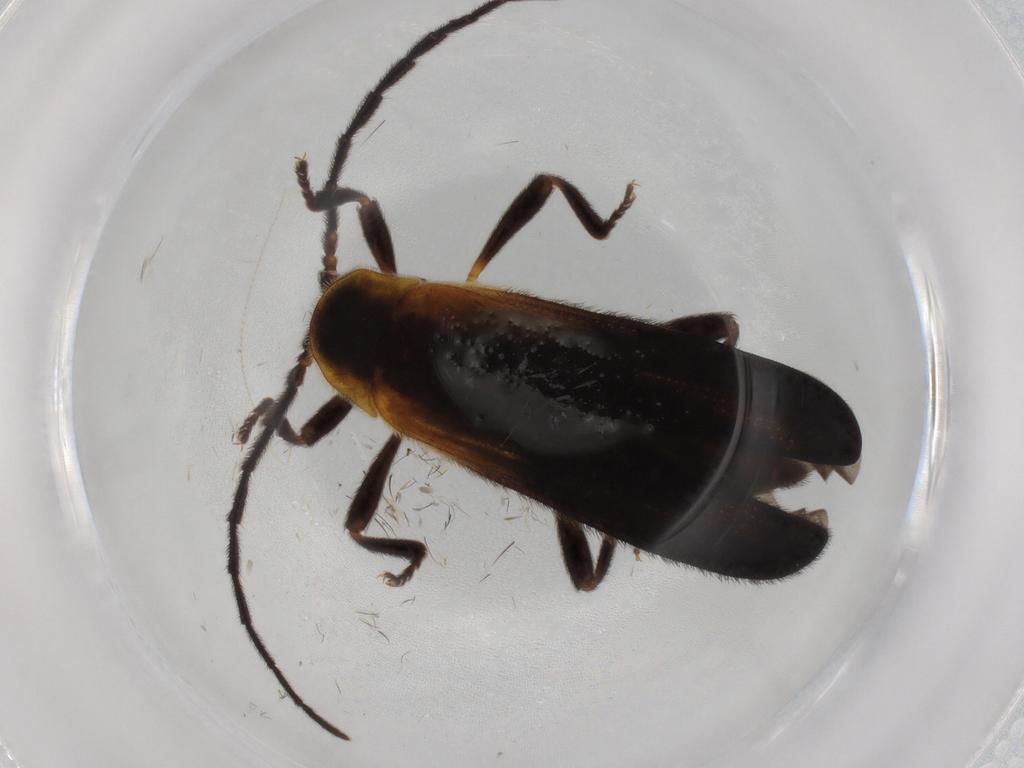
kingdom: Animalia
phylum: Arthropoda
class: Insecta
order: Coleoptera
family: Lycidae
